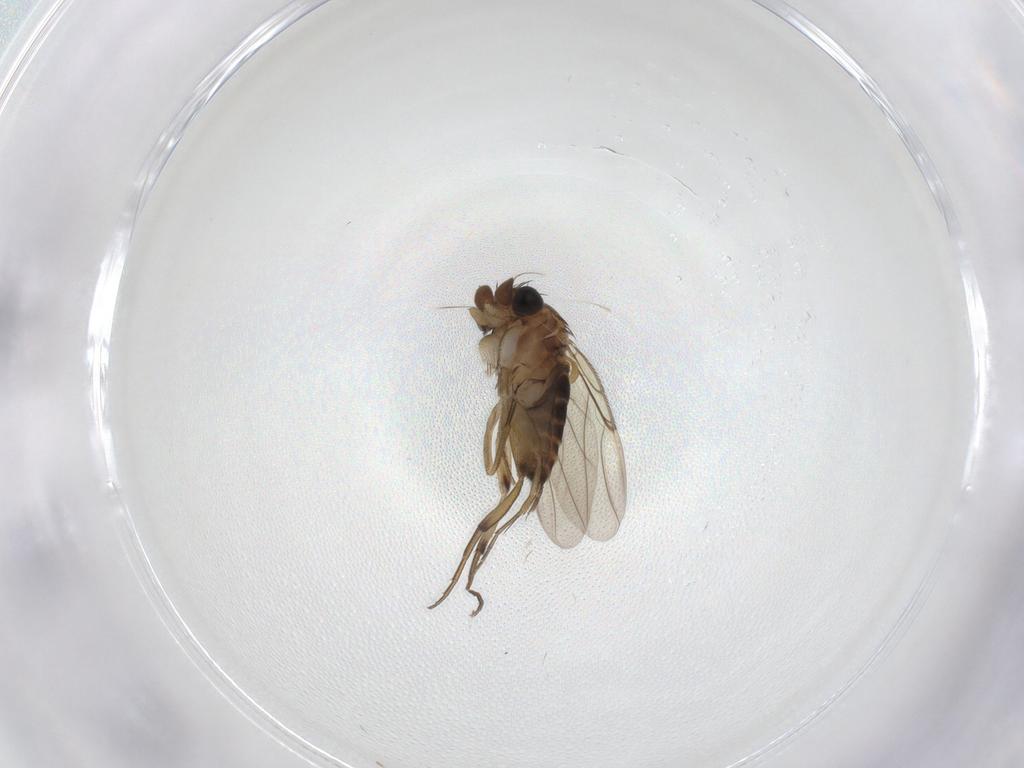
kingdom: Animalia
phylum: Arthropoda
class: Insecta
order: Diptera
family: Phoridae
